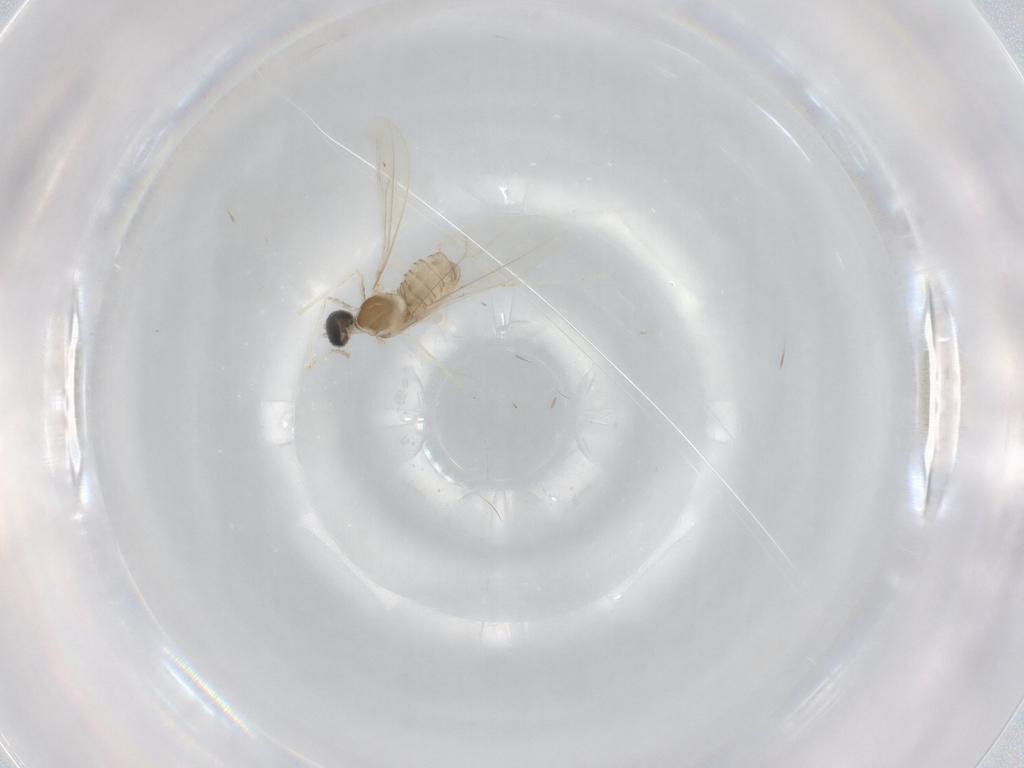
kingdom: Animalia
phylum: Arthropoda
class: Insecta
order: Diptera
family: Cecidomyiidae
